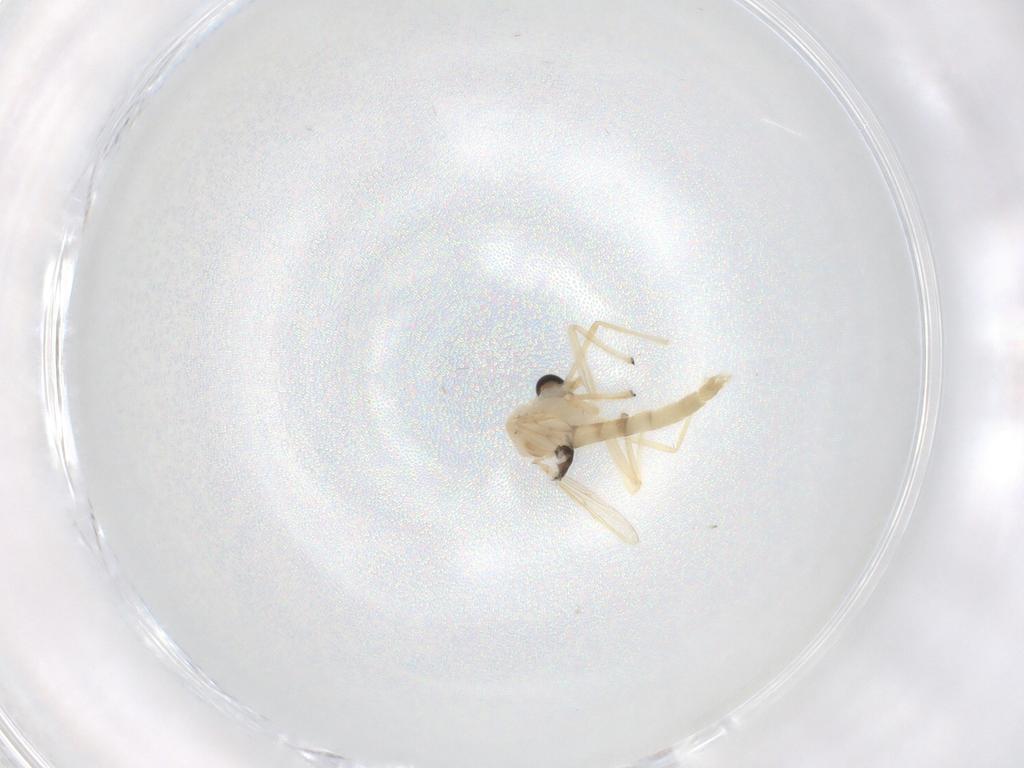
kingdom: Animalia
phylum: Arthropoda
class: Insecta
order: Diptera
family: Chironomidae
